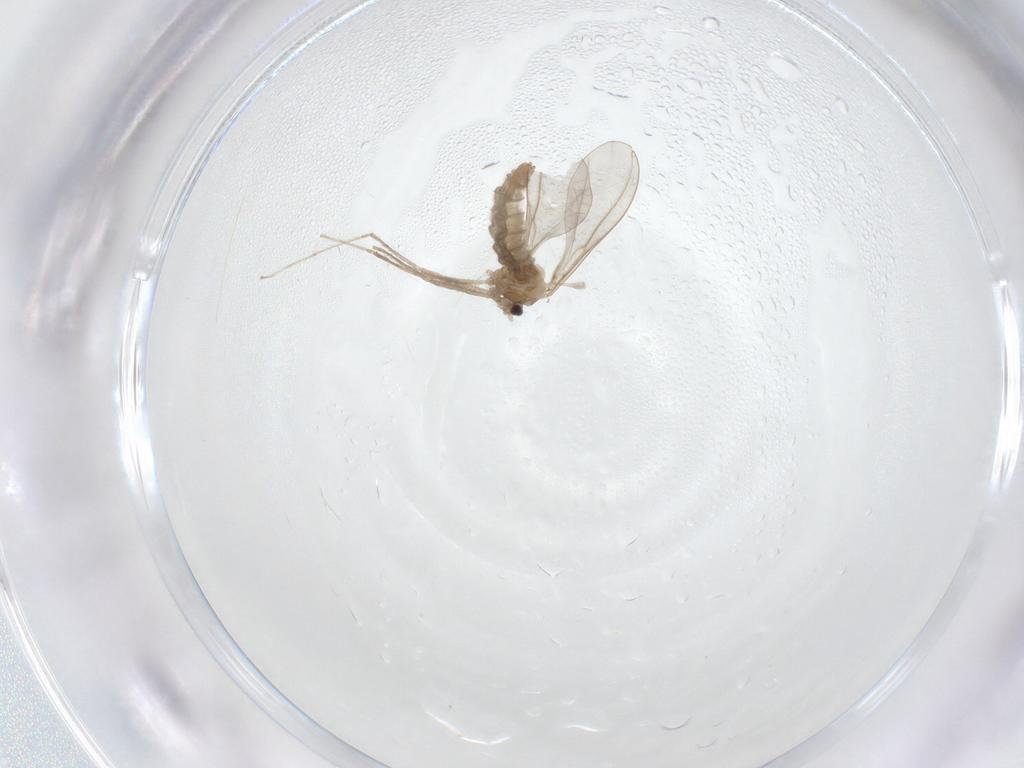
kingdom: Animalia
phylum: Arthropoda
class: Insecta
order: Diptera
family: Cecidomyiidae
